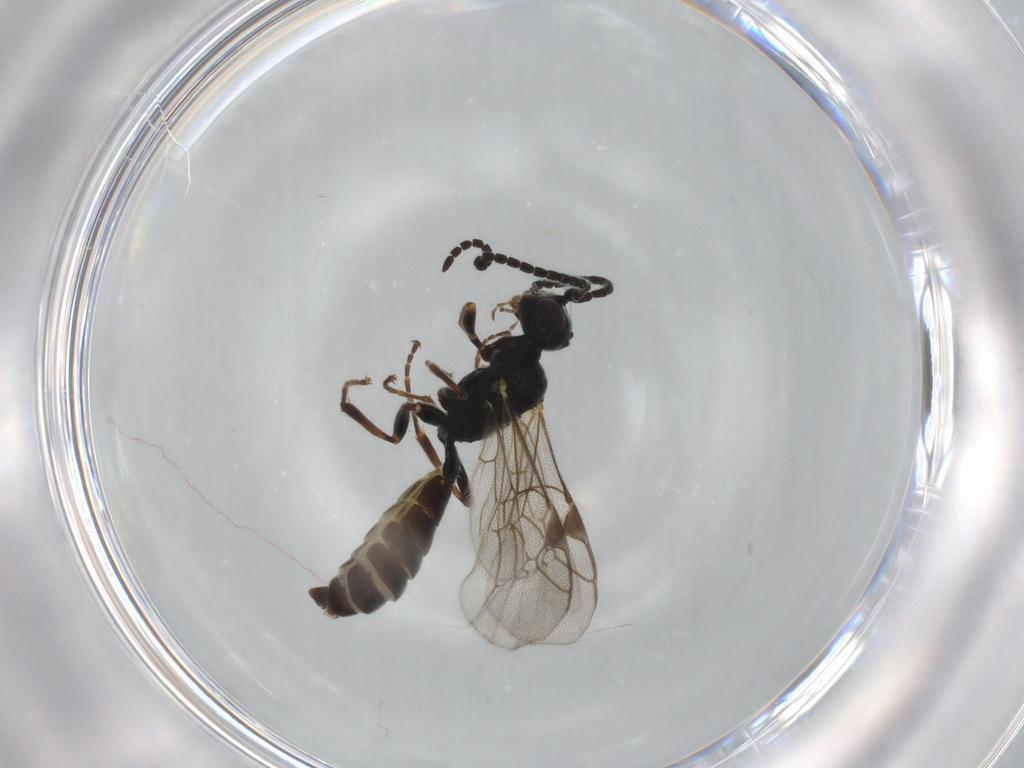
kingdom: Animalia
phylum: Arthropoda
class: Insecta
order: Hymenoptera
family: Ichneumonidae
